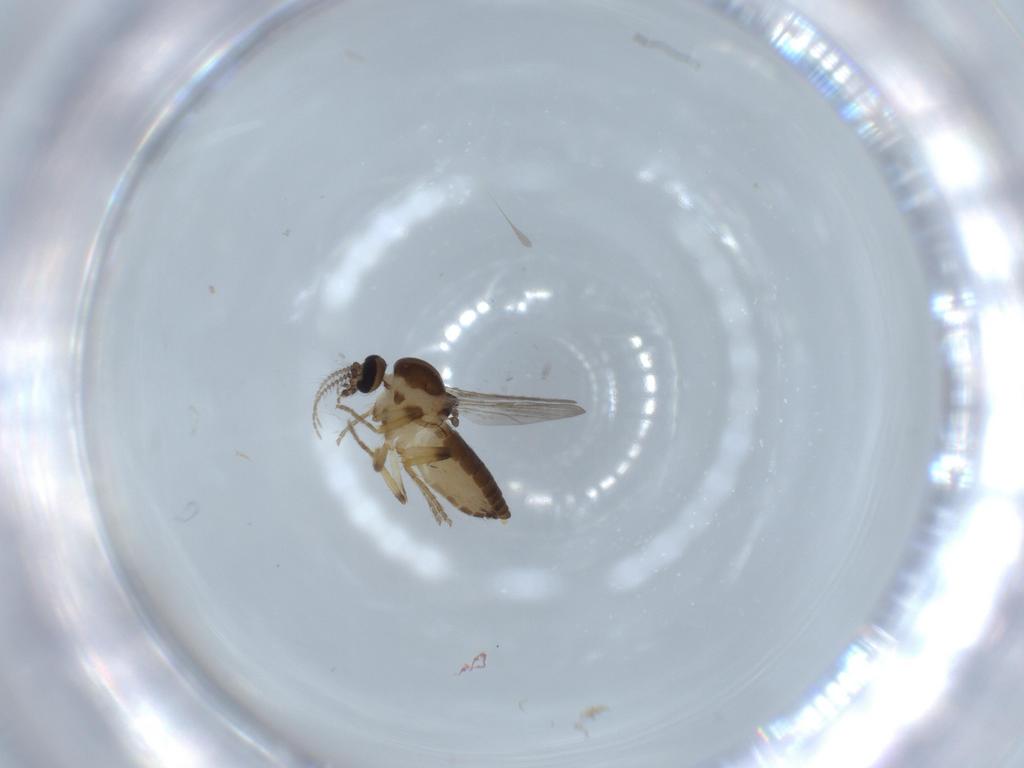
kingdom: Animalia
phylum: Arthropoda
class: Insecta
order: Diptera
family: Ceratopogonidae
